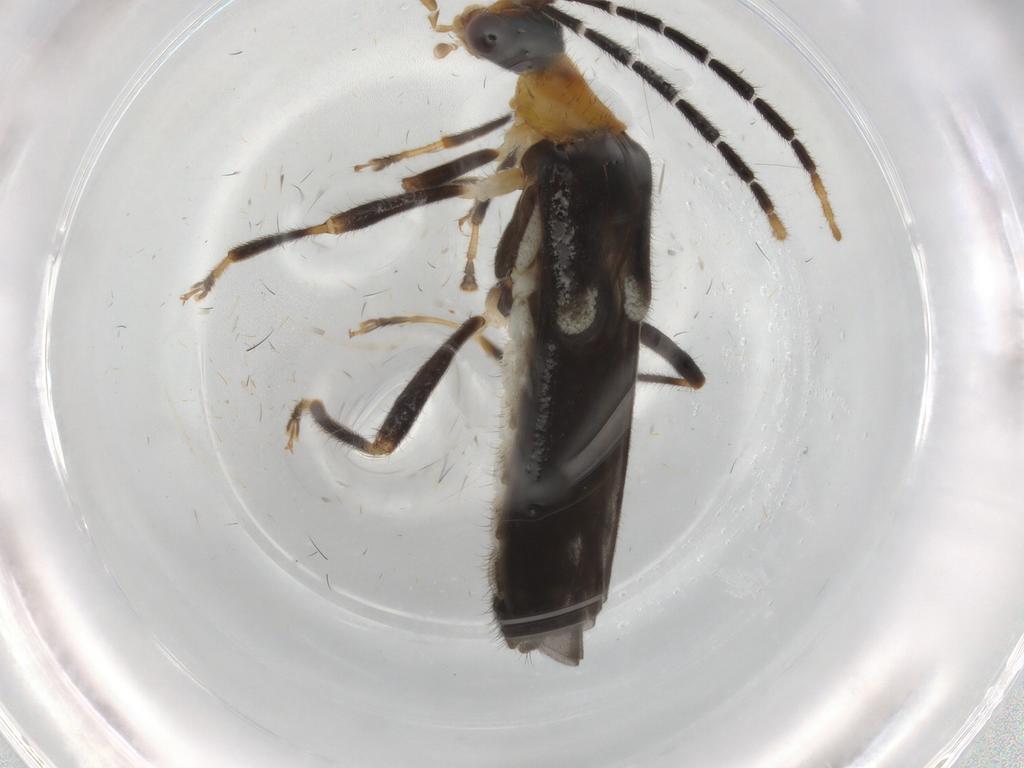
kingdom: Animalia
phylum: Arthropoda
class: Insecta
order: Coleoptera
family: Cantharidae
